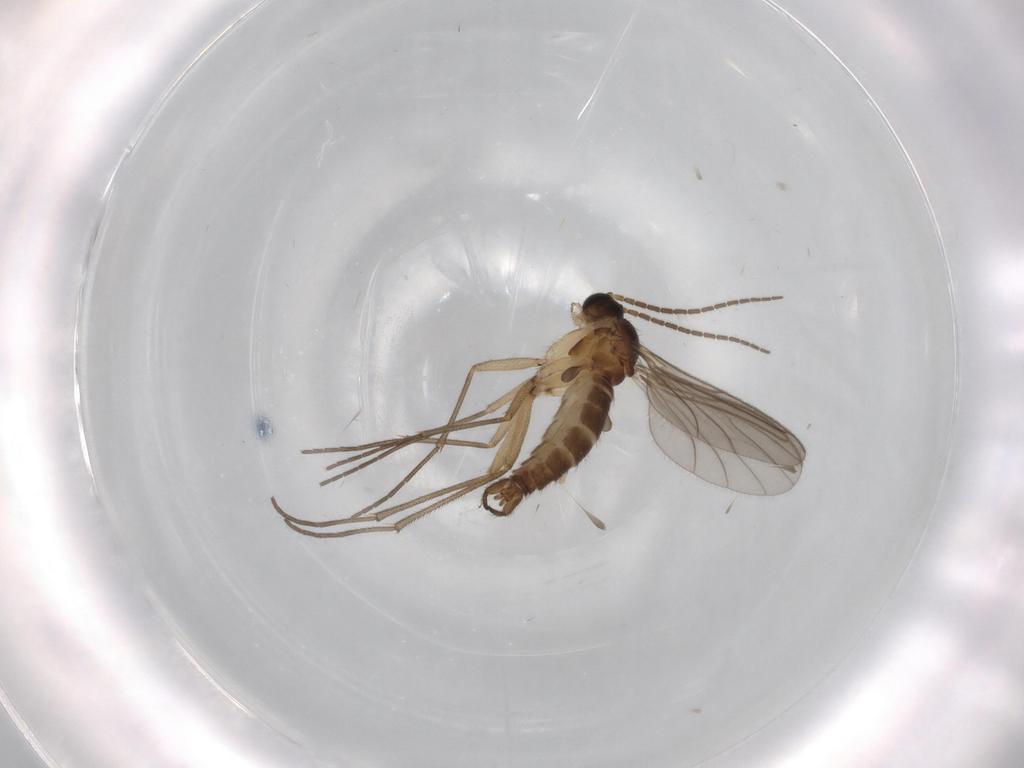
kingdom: Animalia
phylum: Arthropoda
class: Insecta
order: Diptera
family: Sciaridae
